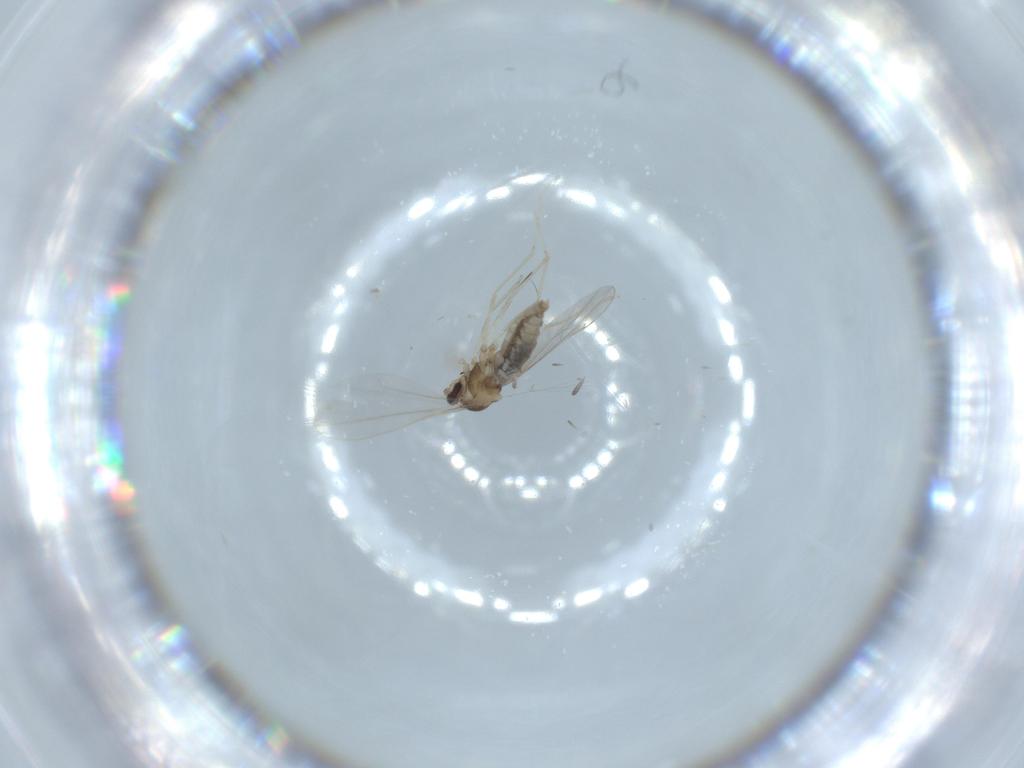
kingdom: Animalia
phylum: Arthropoda
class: Insecta
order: Diptera
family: Cecidomyiidae
